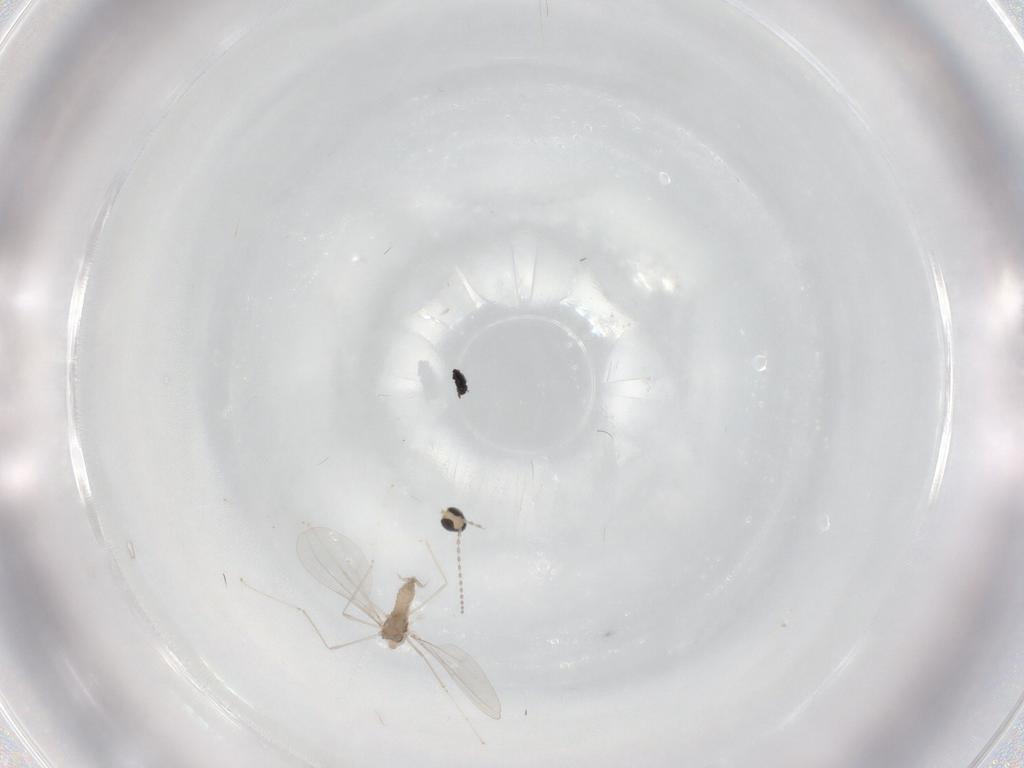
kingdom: Animalia
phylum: Arthropoda
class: Insecta
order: Diptera
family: Cecidomyiidae
